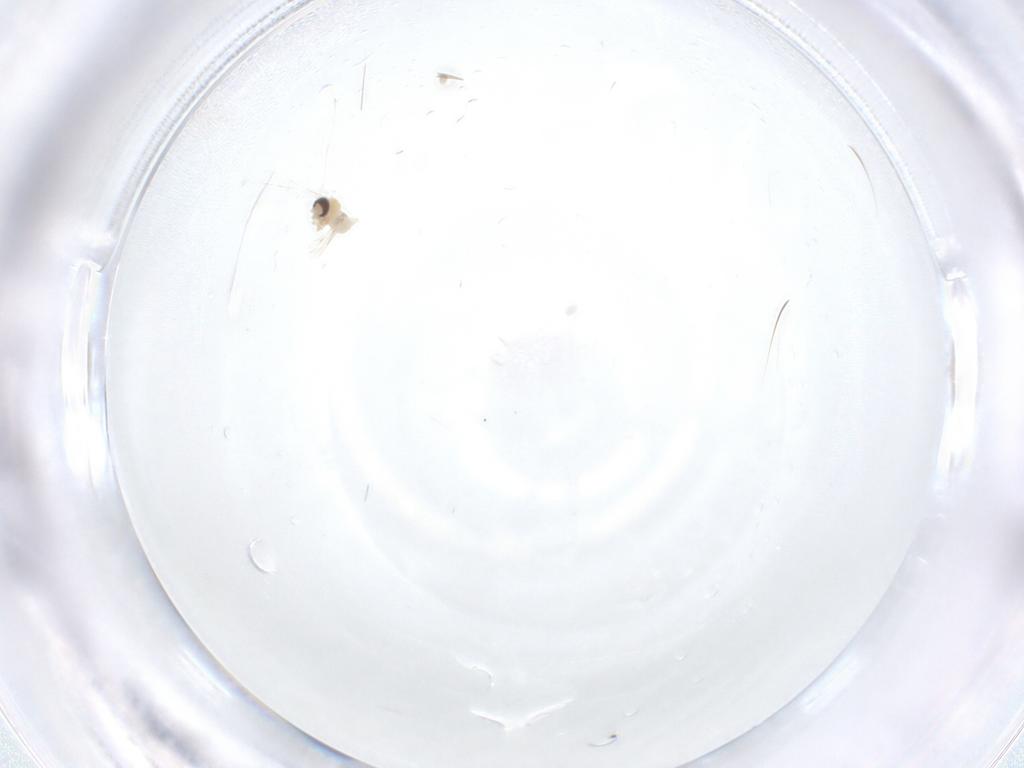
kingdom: Animalia
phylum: Arthropoda
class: Insecta
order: Diptera
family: Cecidomyiidae
